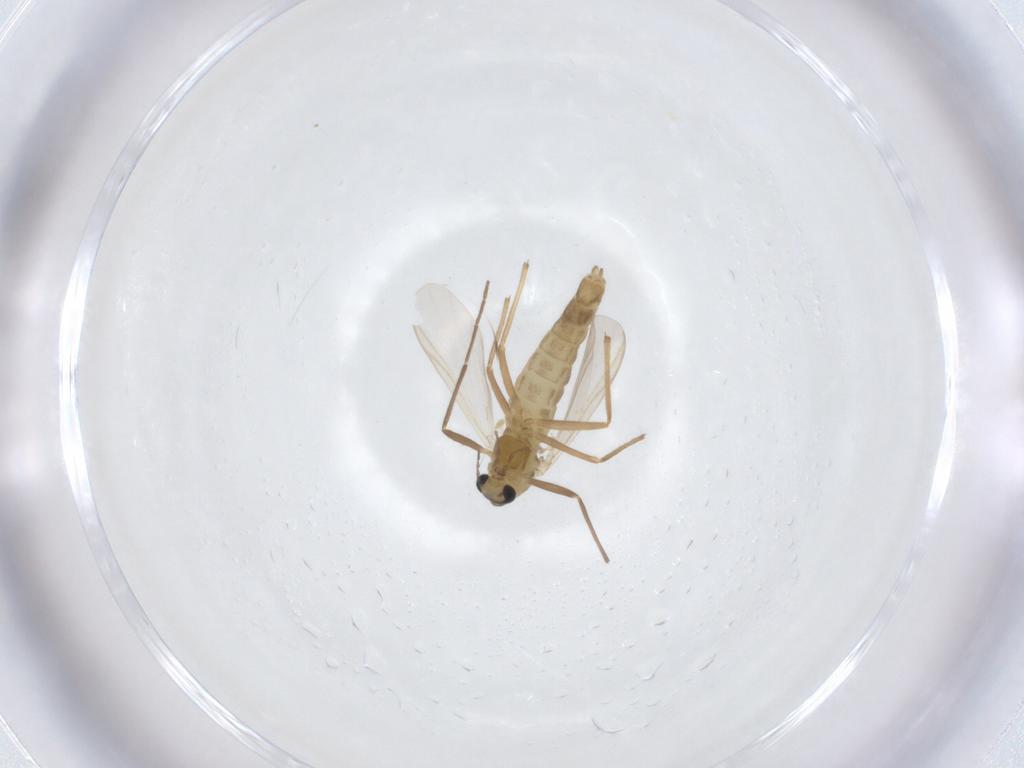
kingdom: Animalia
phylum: Arthropoda
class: Insecta
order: Diptera
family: Chironomidae
